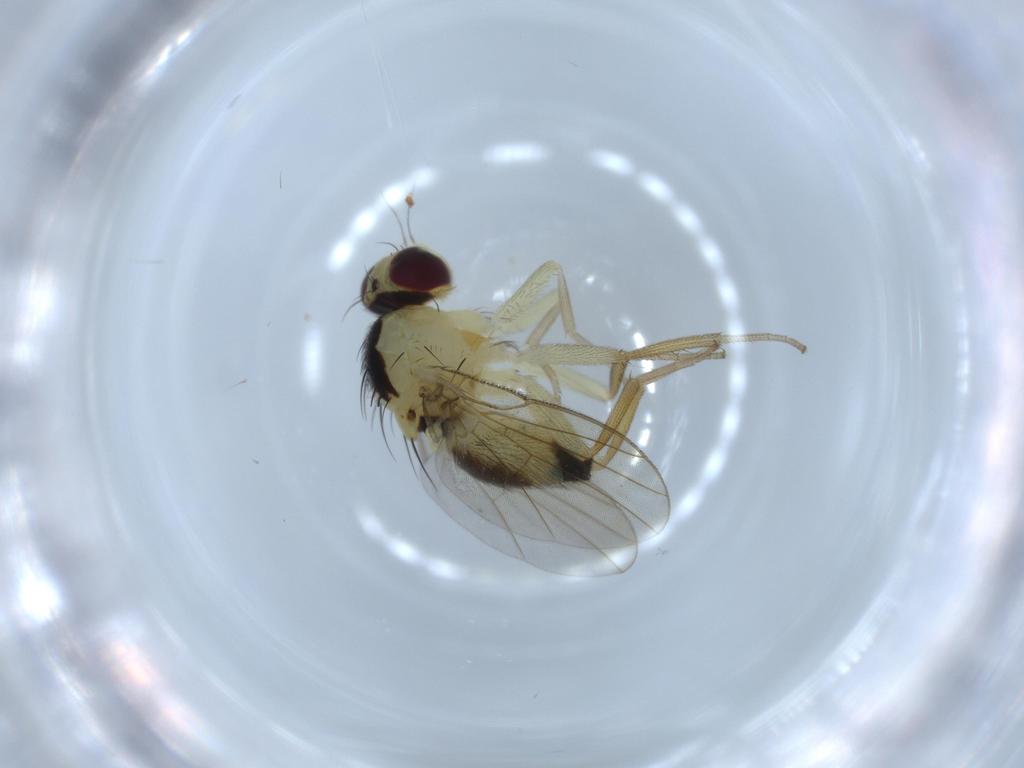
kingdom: Animalia
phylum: Arthropoda
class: Insecta
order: Diptera
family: Agromyzidae
